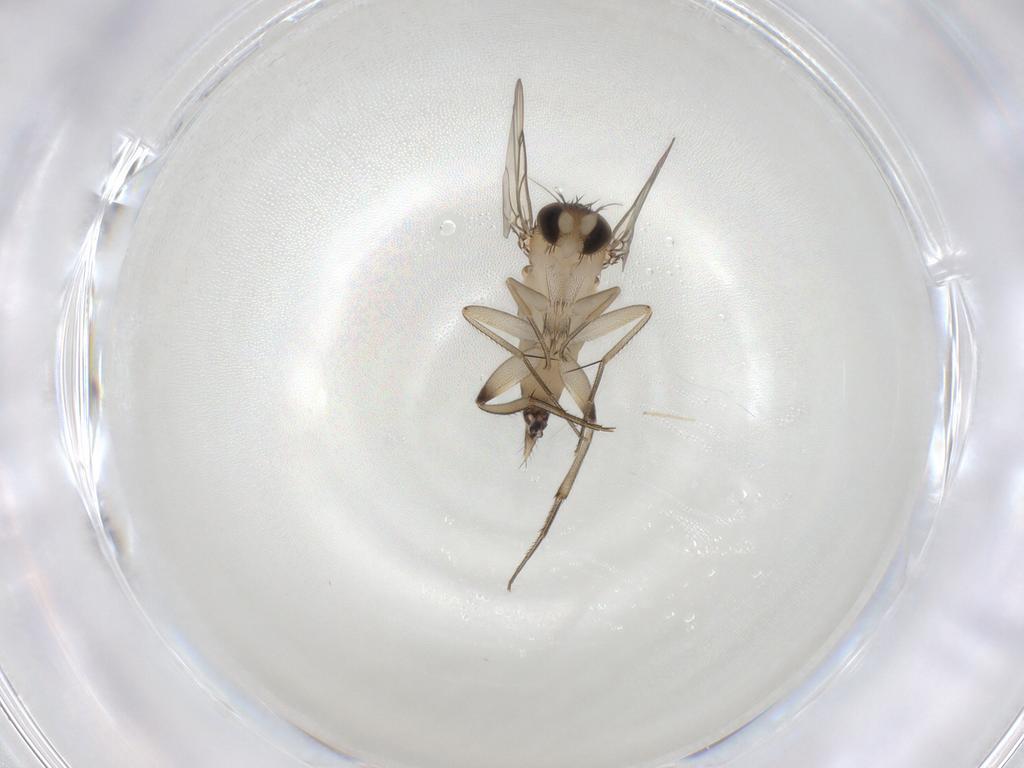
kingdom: Animalia
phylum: Arthropoda
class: Insecta
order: Diptera
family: Phoridae
